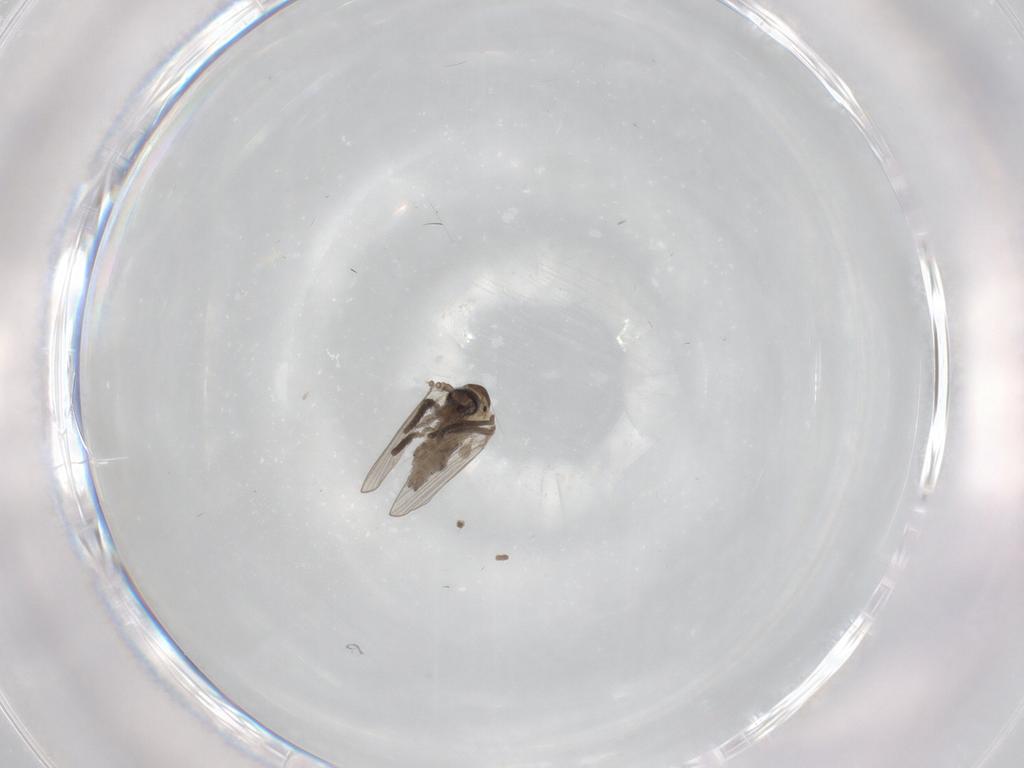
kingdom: Animalia
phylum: Arthropoda
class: Insecta
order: Diptera
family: Psychodidae
